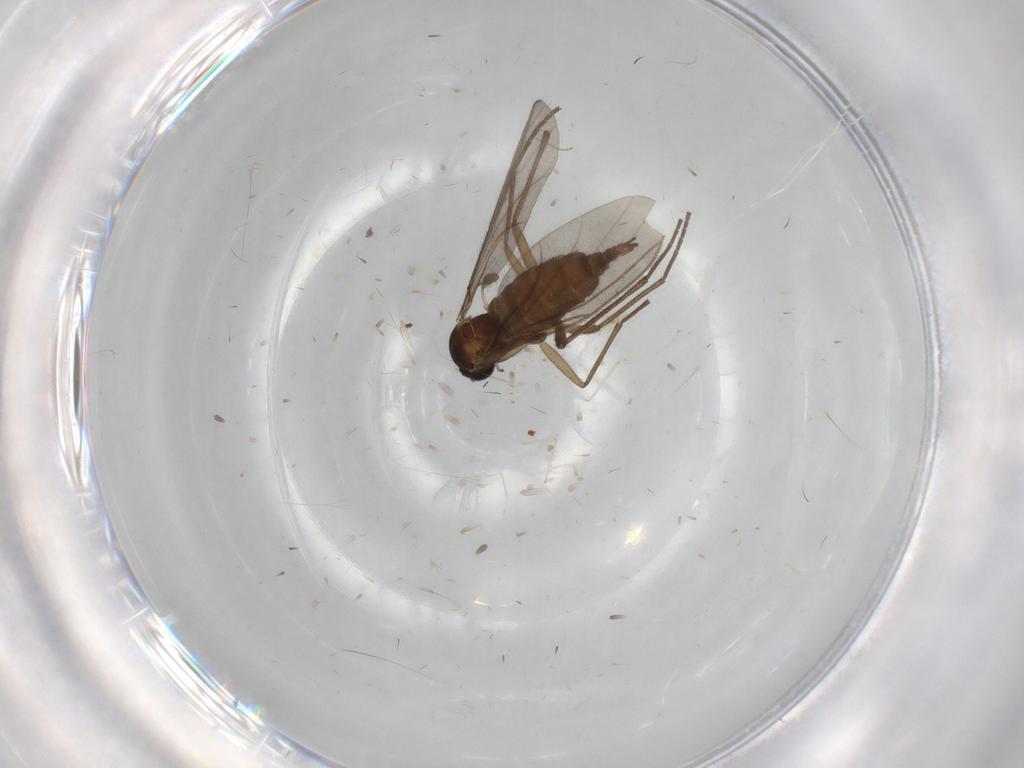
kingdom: Animalia
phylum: Arthropoda
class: Insecta
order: Diptera
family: Sciaridae
